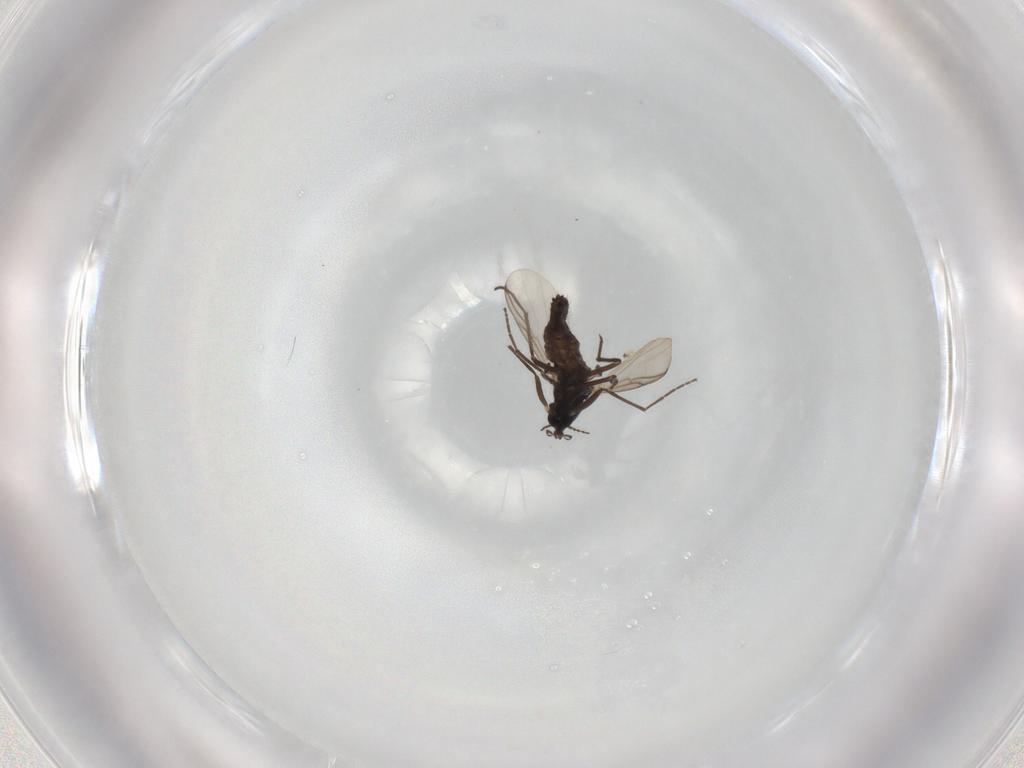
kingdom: Animalia
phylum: Arthropoda
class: Insecta
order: Diptera
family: Chironomidae
